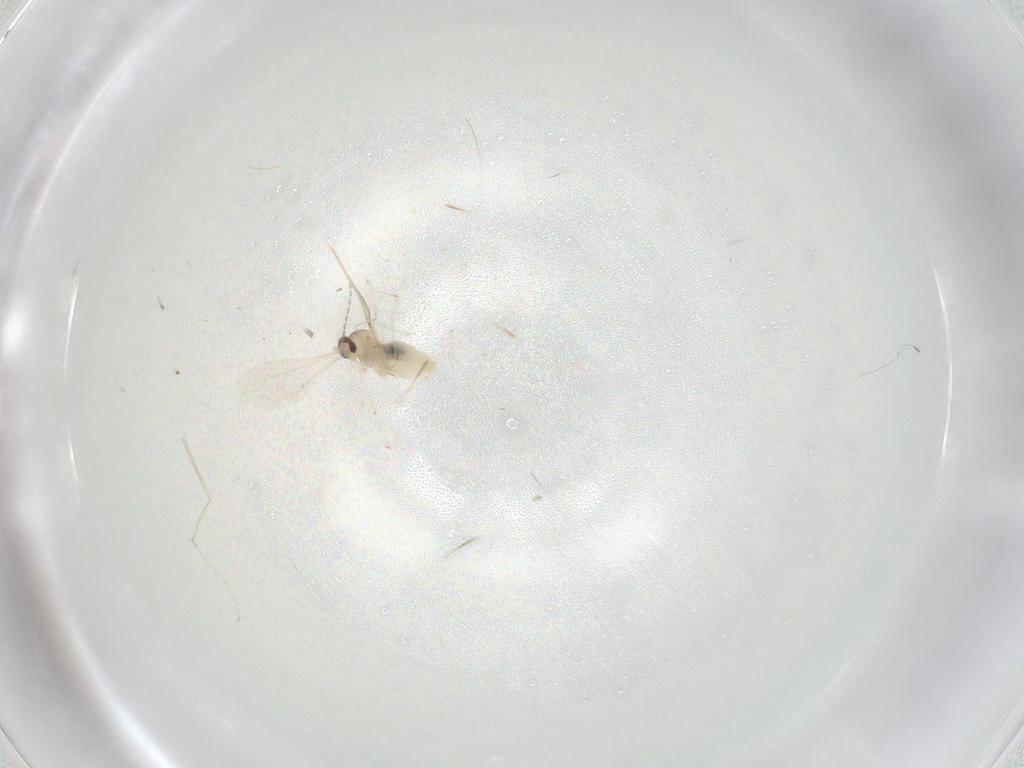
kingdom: Animalia
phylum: Arthropoda
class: Insecta
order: Diptera
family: Cecidomyiidae
